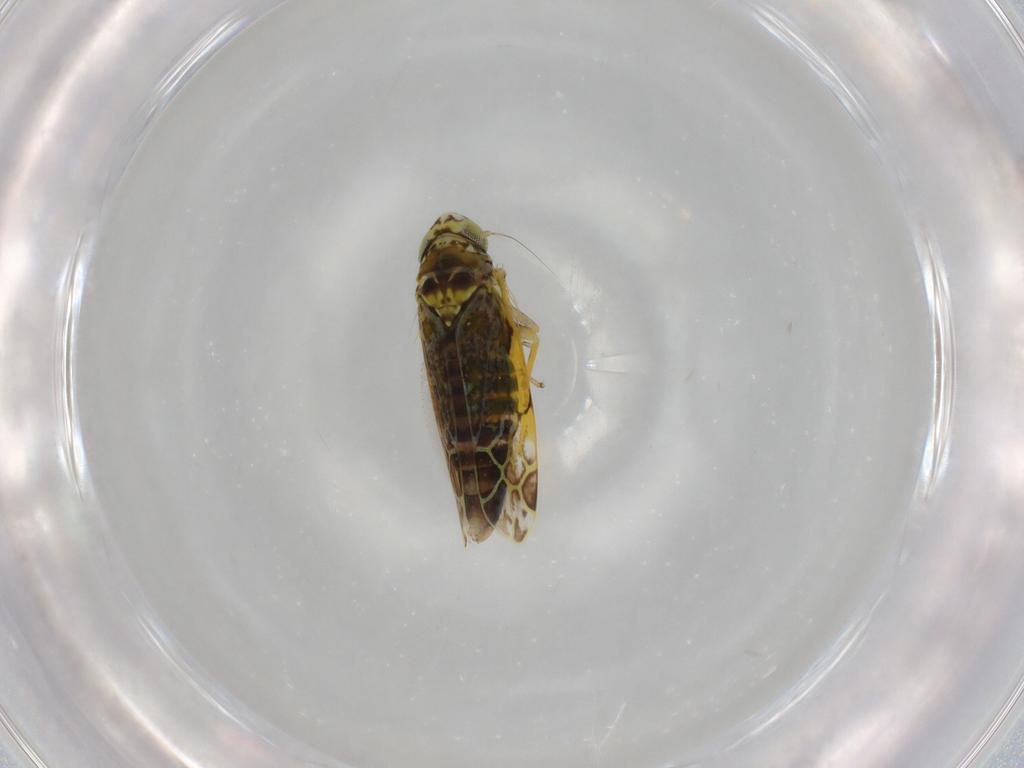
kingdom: Animalia
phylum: Arthropoda
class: Insecta
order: Hemiptera
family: Cicadellidae
